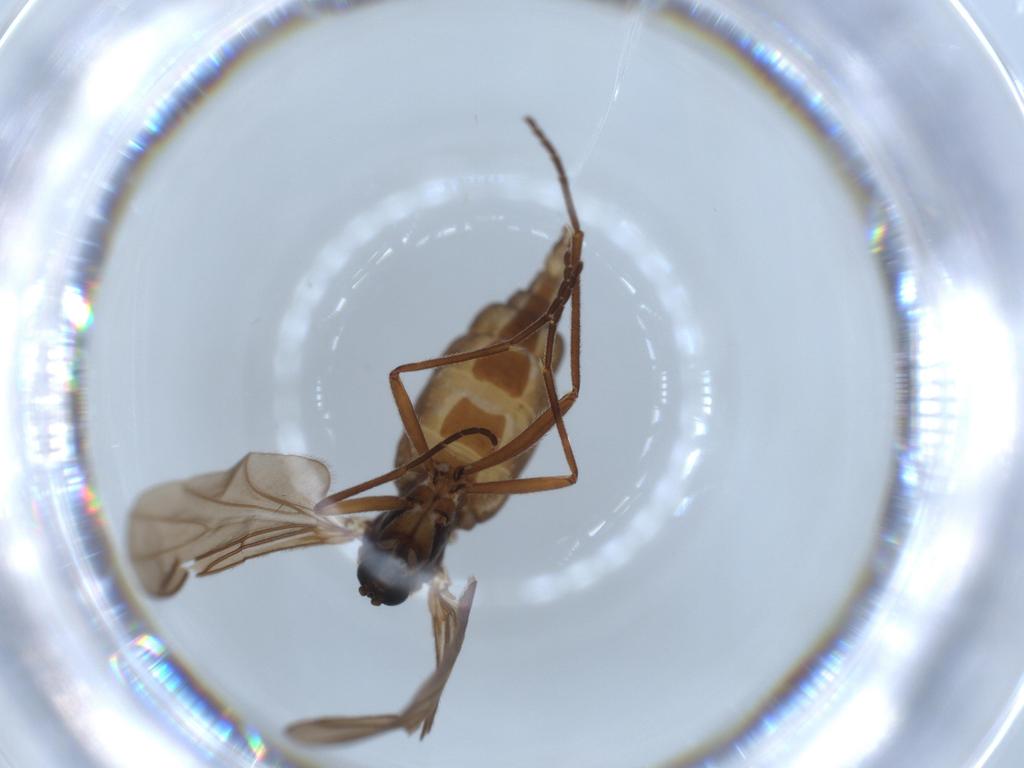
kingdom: Animalia
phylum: Arthropoda
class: Insecta
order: Diptera
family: Sciaridae
